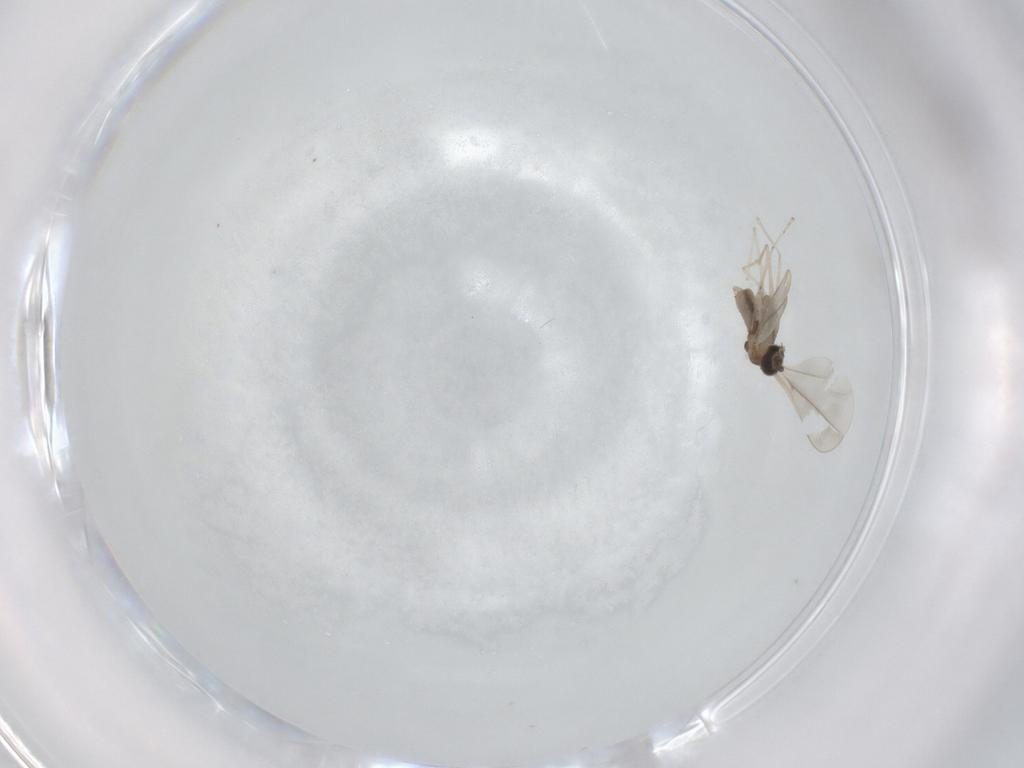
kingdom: Animalia
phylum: Arthropoda
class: Insecta
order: Diptera
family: Cecidomyiidae
